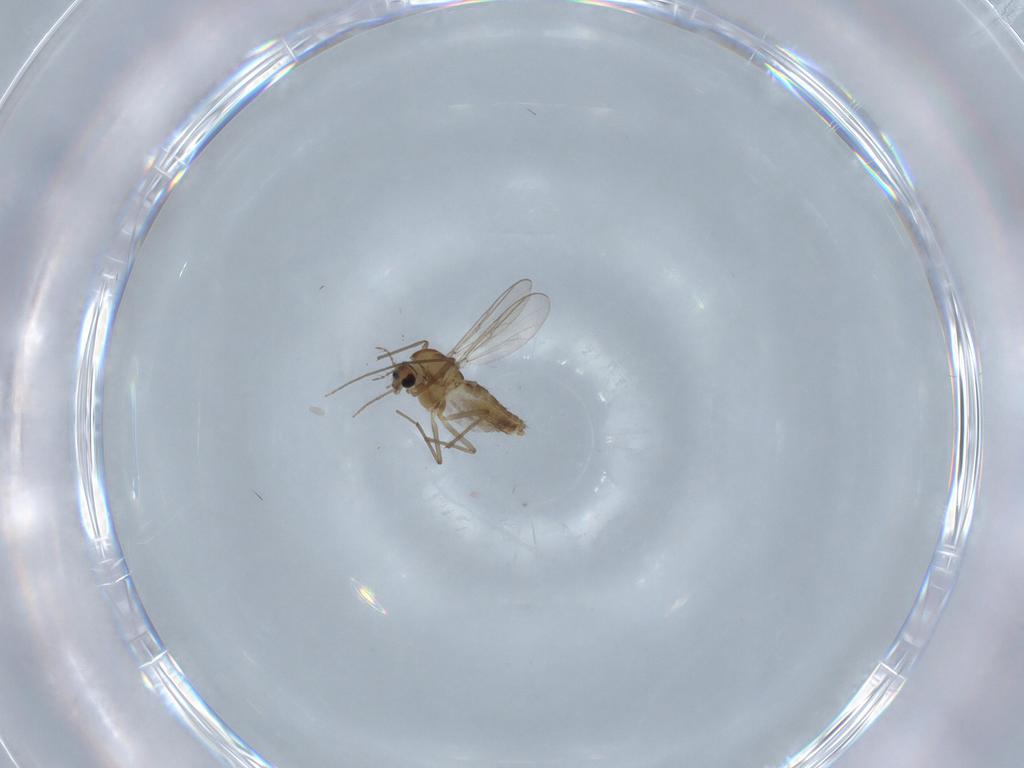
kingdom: Animalia
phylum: Arthropoda
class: Insecta
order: Diptera
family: Chironomidae
